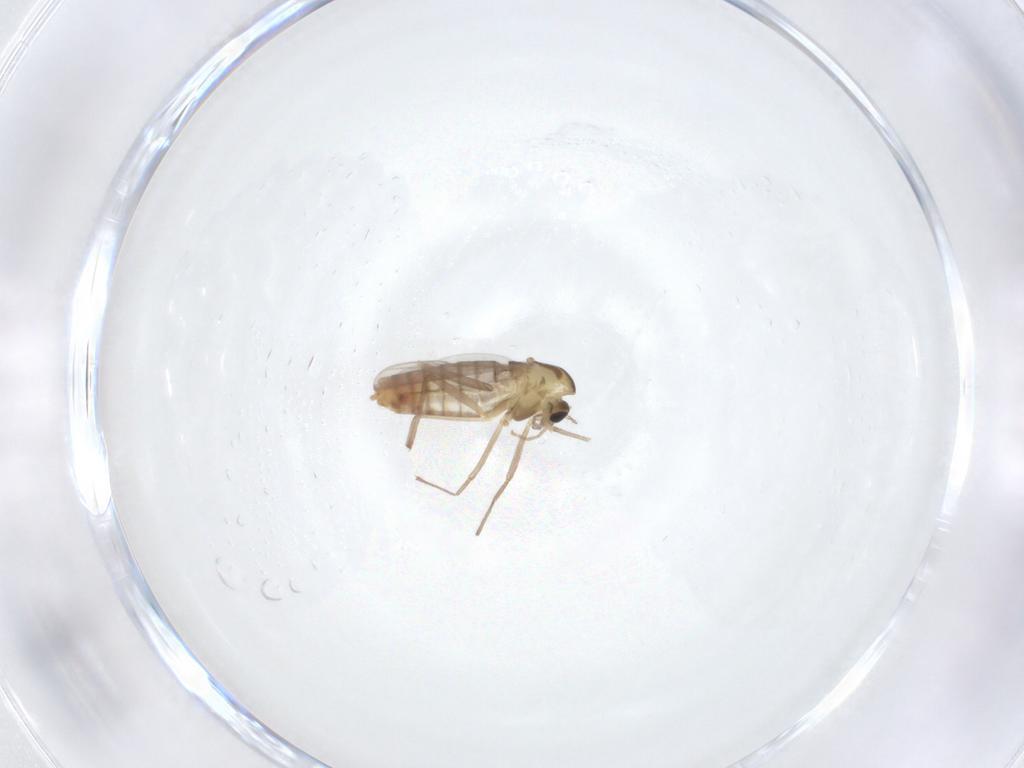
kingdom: Animalia
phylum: Arthropoda
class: Insecta
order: Diptera
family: Chironomidae
